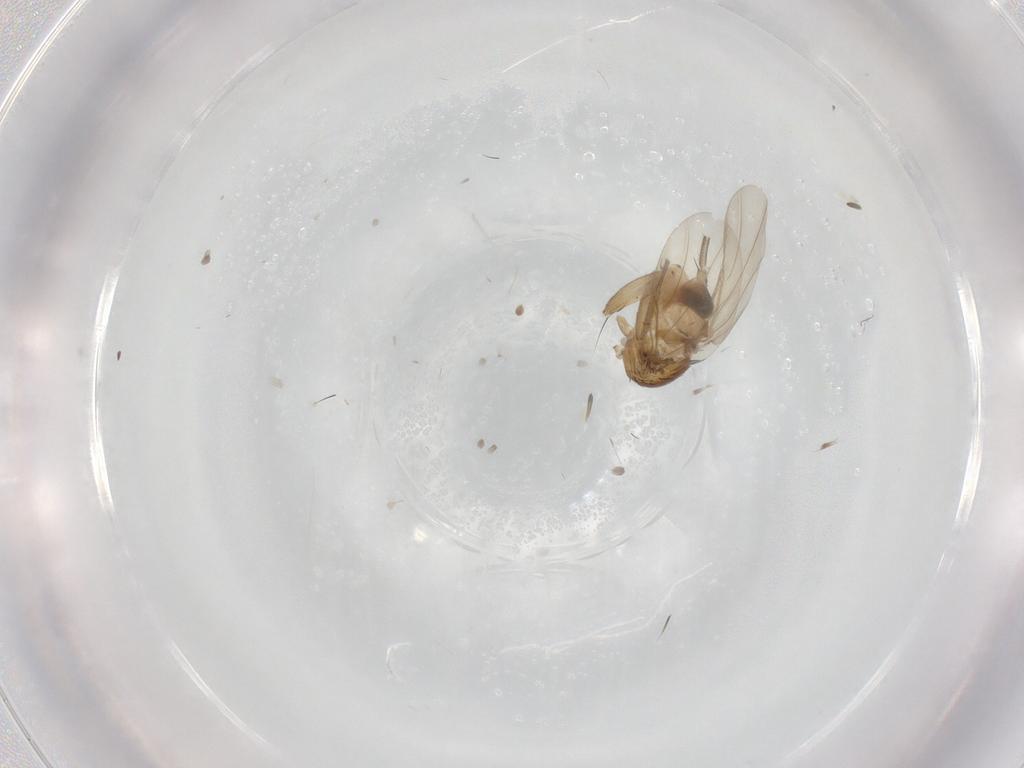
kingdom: Animalia
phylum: Arthropoda
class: Insecta
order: Diptera
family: Phoridae
